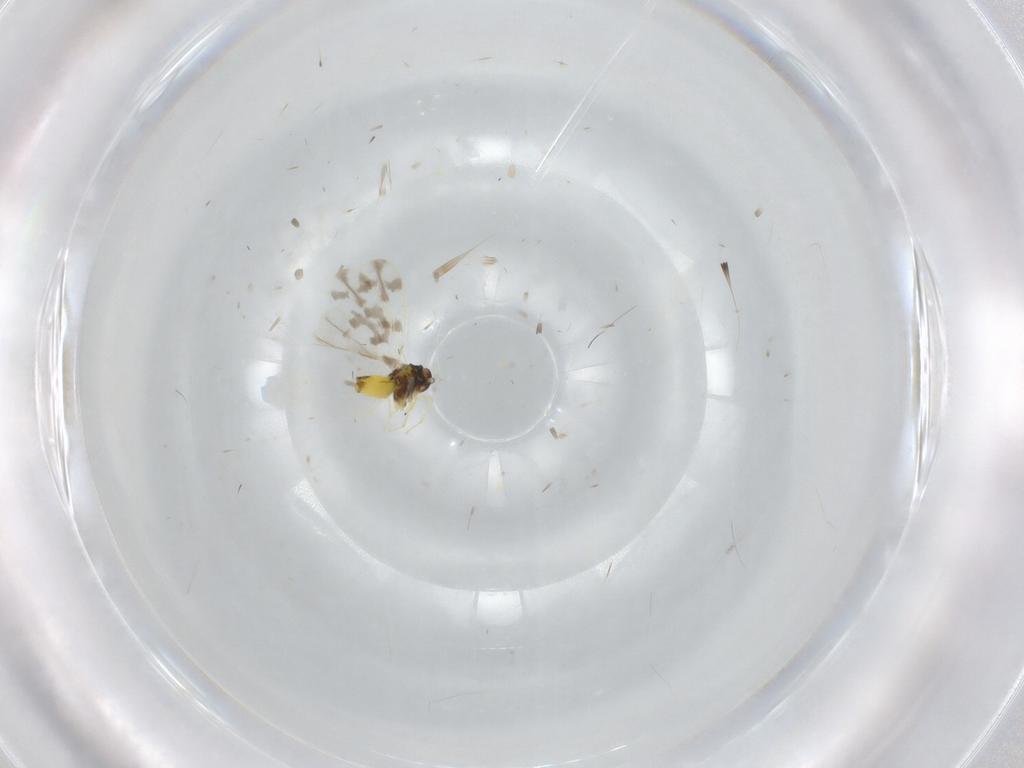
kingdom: Animalia
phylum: Arthropoda
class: Insecta
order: Hemiptera
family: Aleyrodidae
